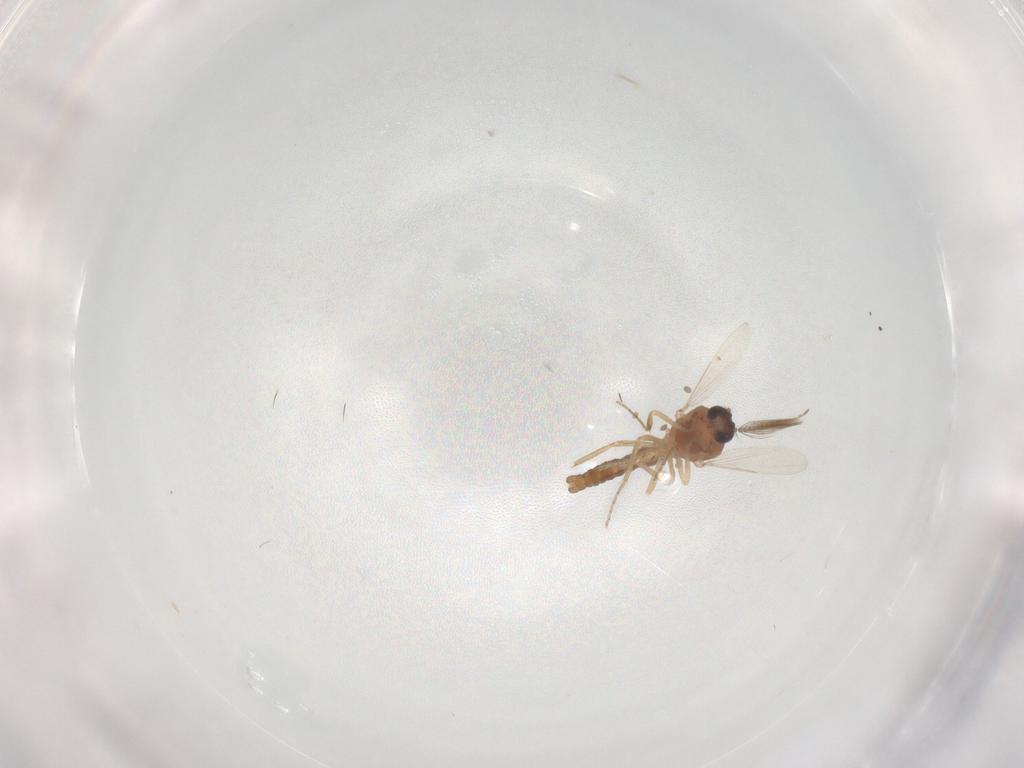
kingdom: Animalia
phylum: Arthropoda
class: Insecta
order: Diptera
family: Ceratopogonidae
